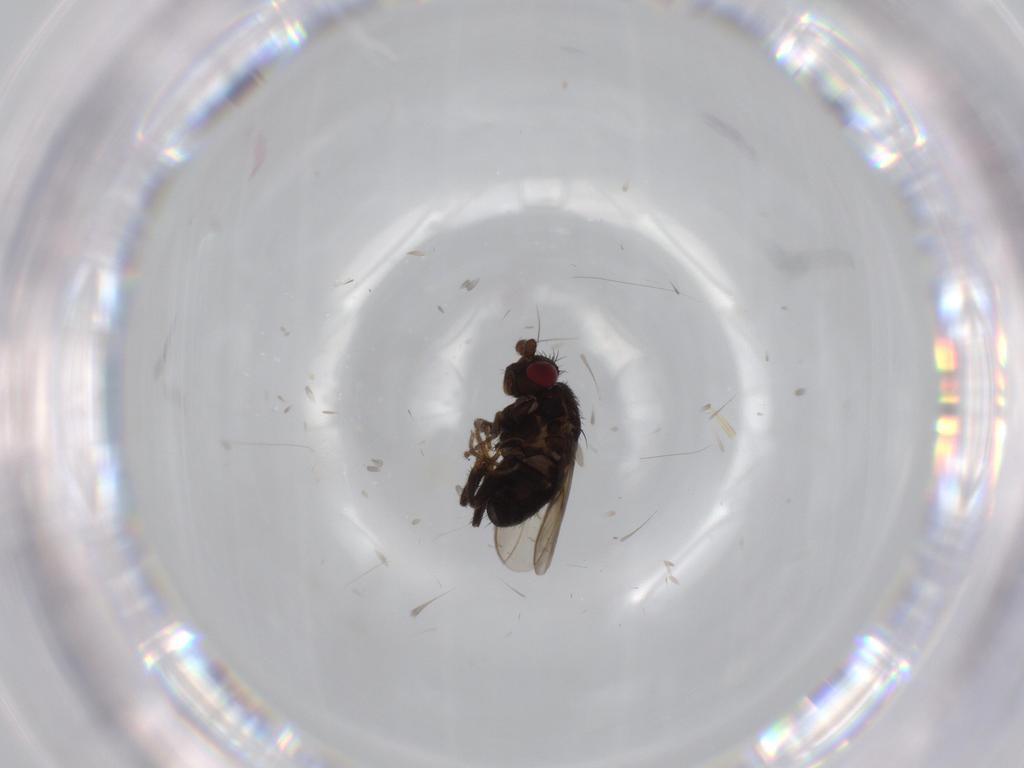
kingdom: Animalia
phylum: Arthropoda
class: Insecta
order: Diptera
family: Sphaeroceridae
